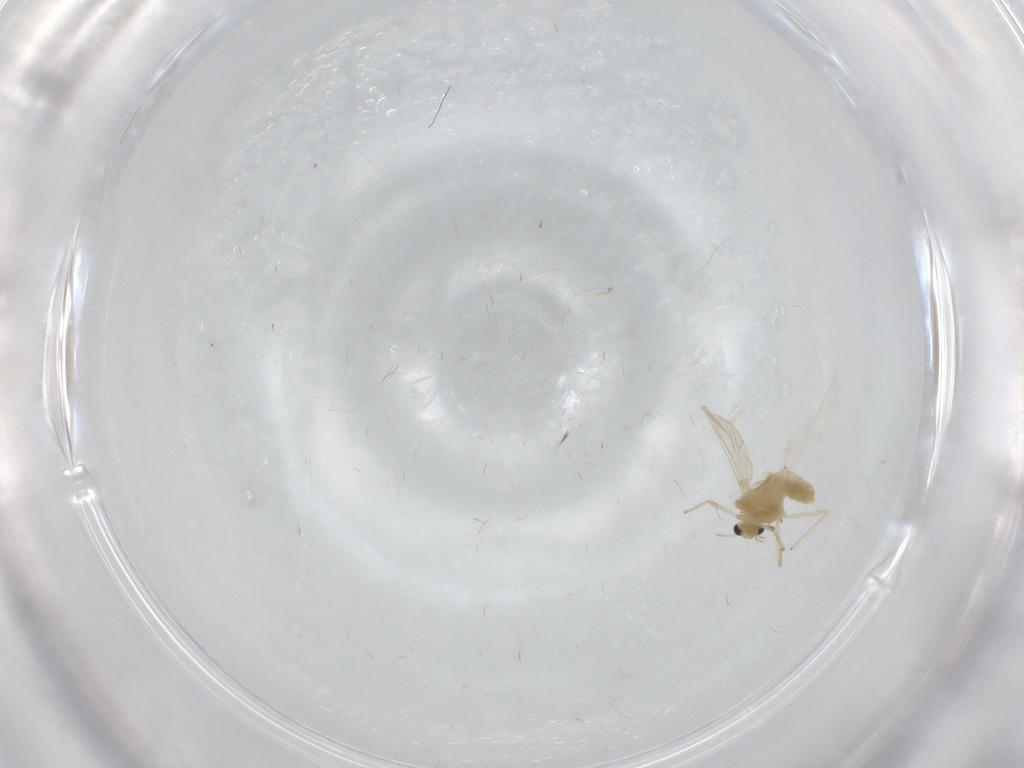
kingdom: Animalia
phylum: Arthropoda
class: Insecta
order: Diptera
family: Chironomidae
